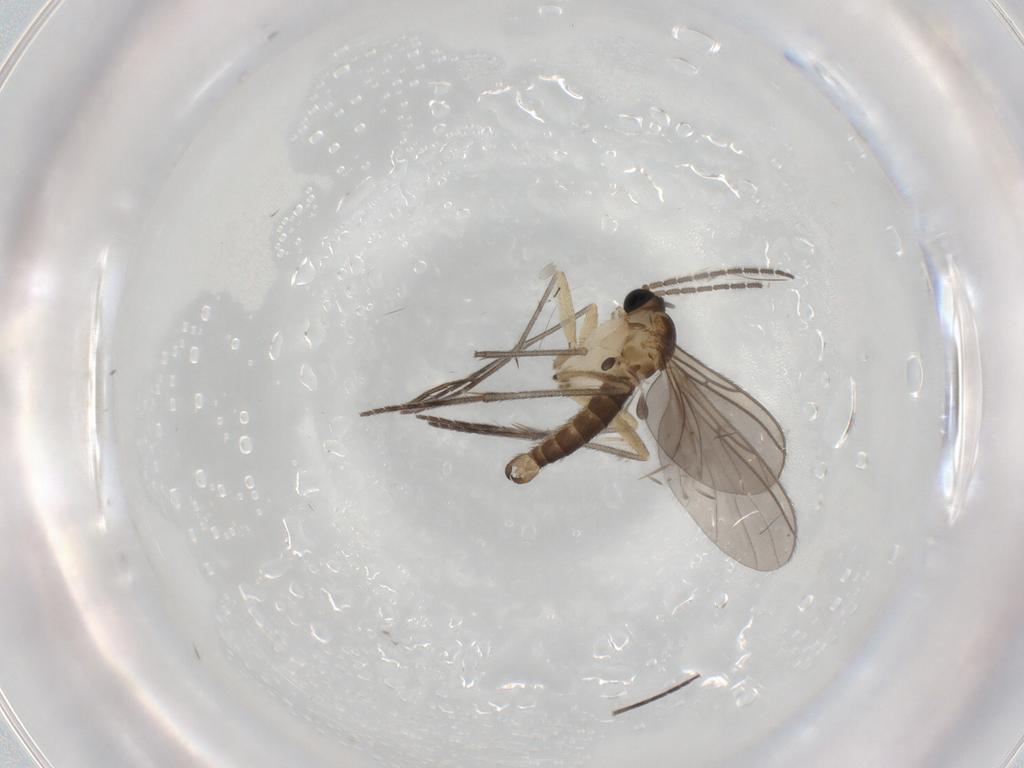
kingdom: Animalia
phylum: Arthropoda
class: Insecta
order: Diptera
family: Sciaridae
